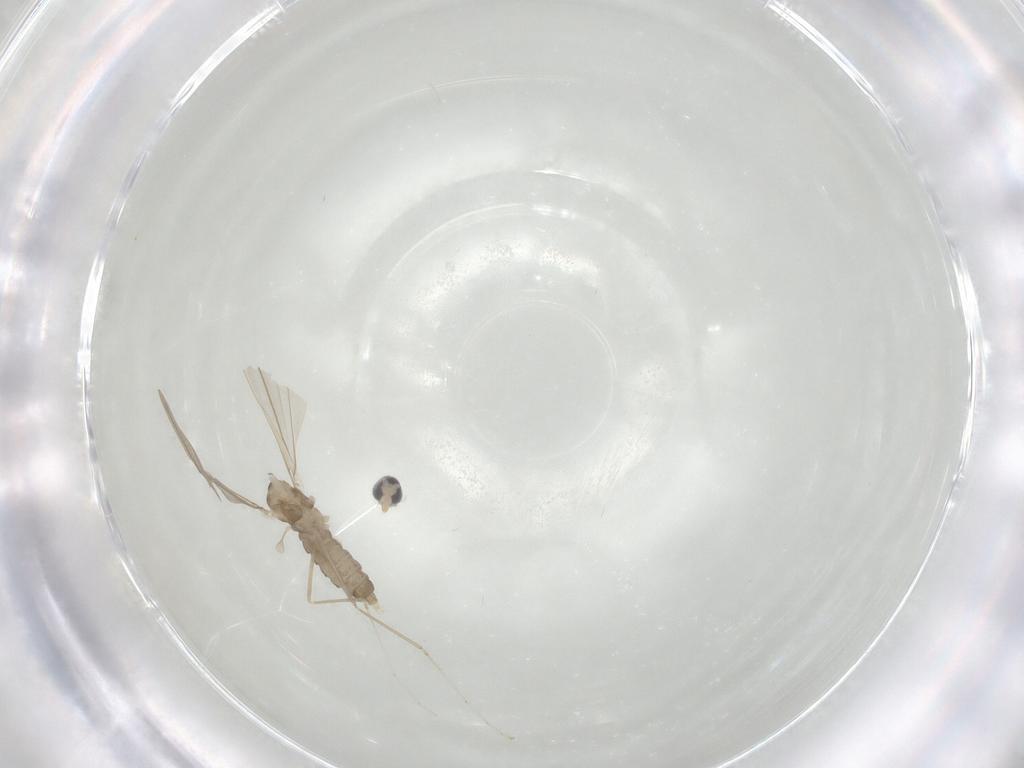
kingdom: Animalia
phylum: Arthropoda
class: Insecta
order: Diptera
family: Cecidomyiidae
